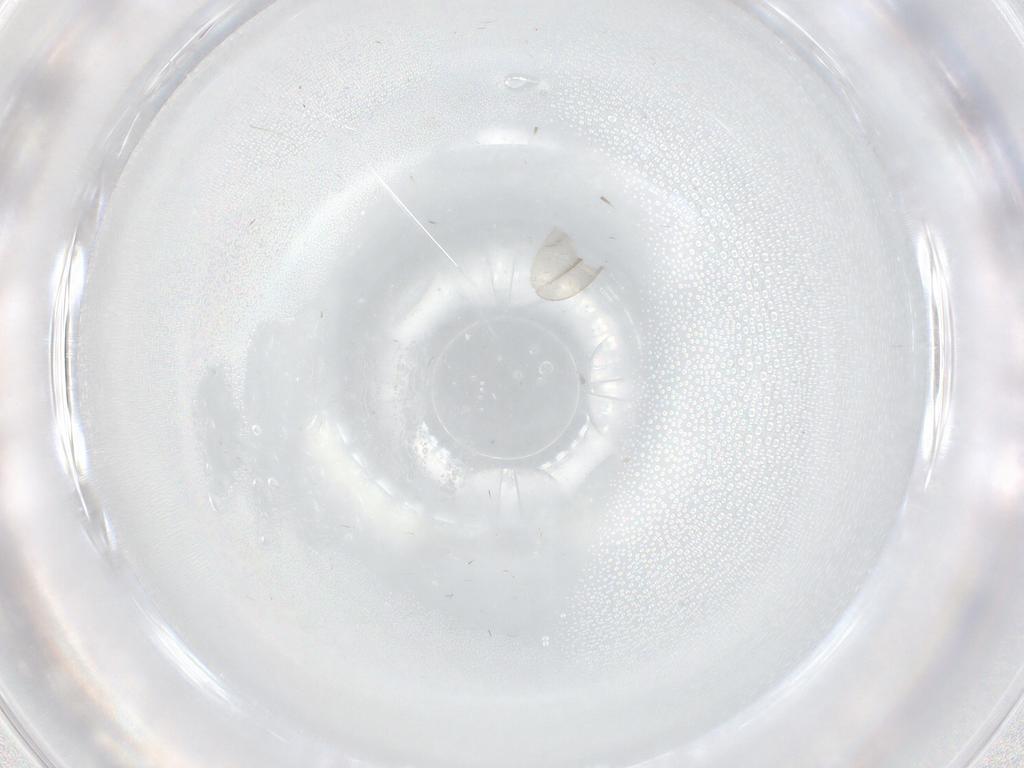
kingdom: Animalia
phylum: Arthropoda
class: Insecta
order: Diptera
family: Cecidomyiidae
